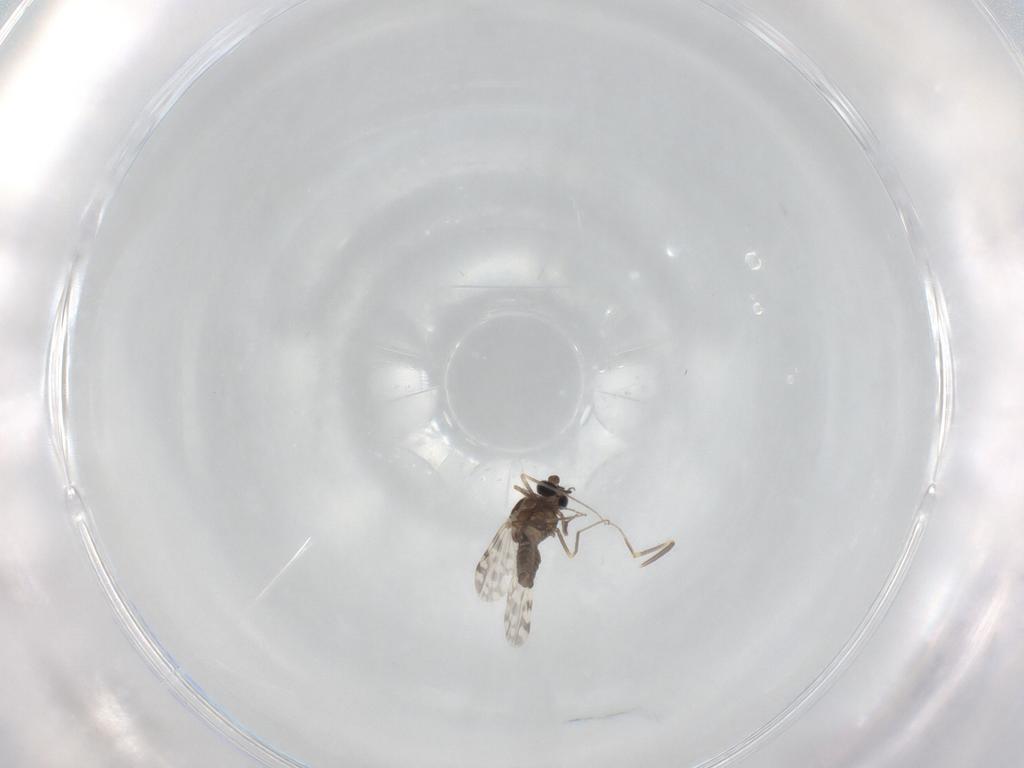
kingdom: Animalia
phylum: Arthropoda
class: Insecta
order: Diptera
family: Ceratopogonidae
